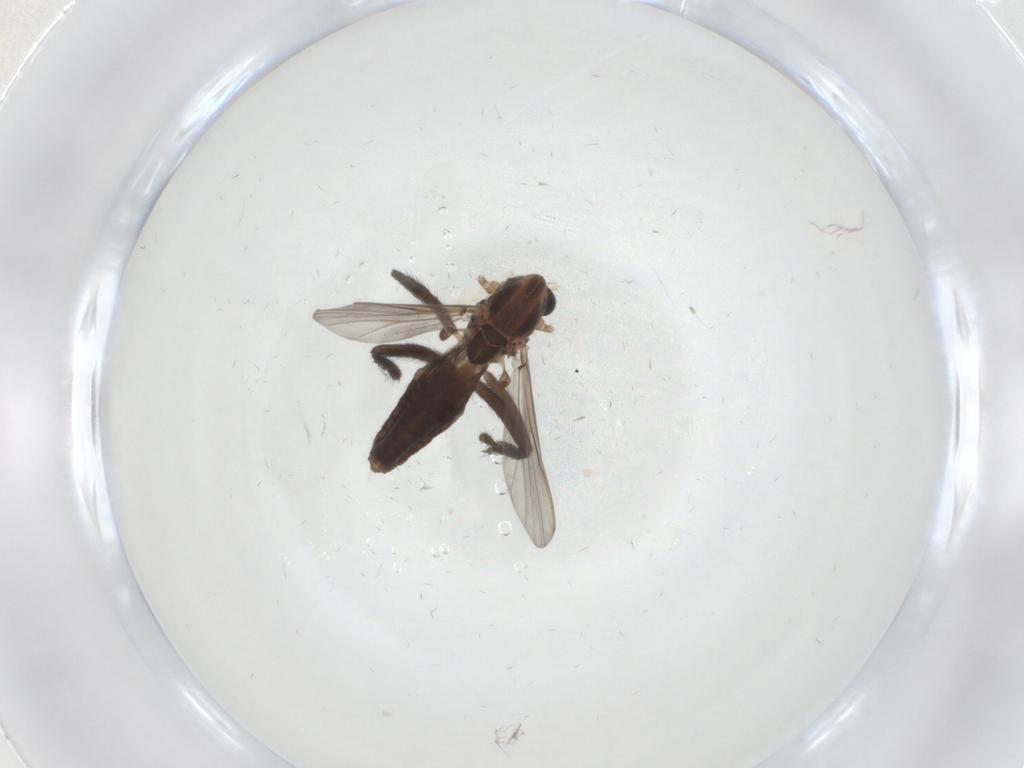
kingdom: Animalia
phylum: Arthropoda
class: Insecta
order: Diptera
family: Chironomidae
